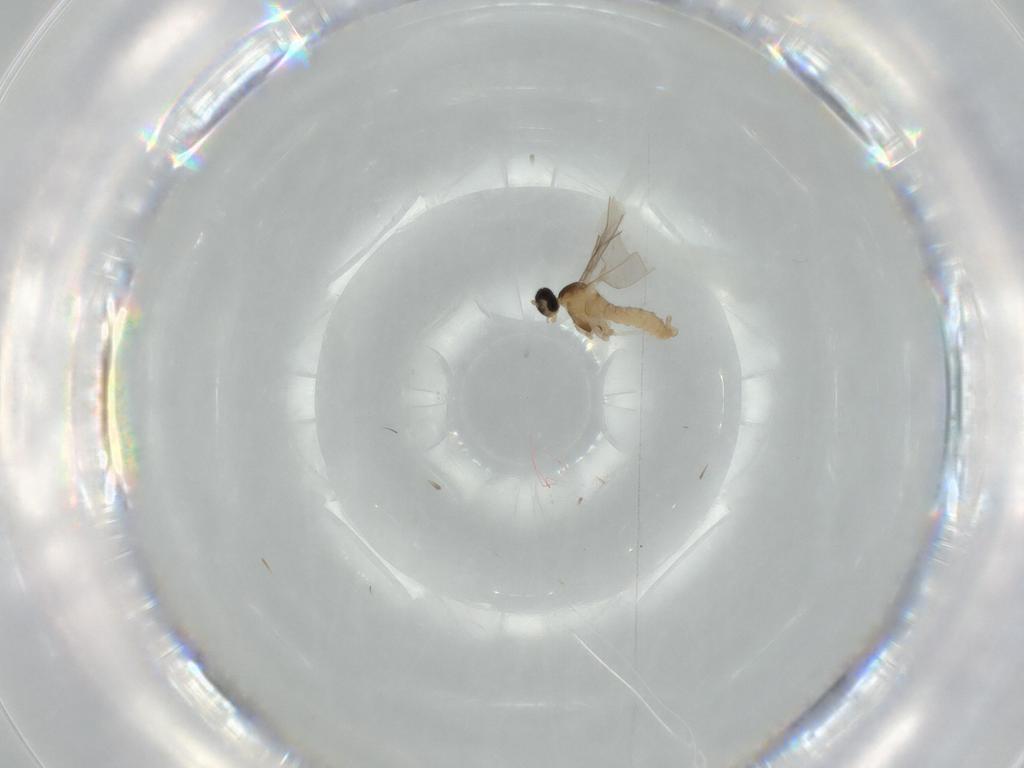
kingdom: Animalia
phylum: Arthropoda
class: Insecta
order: Diptera
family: Cecidomyiidae
